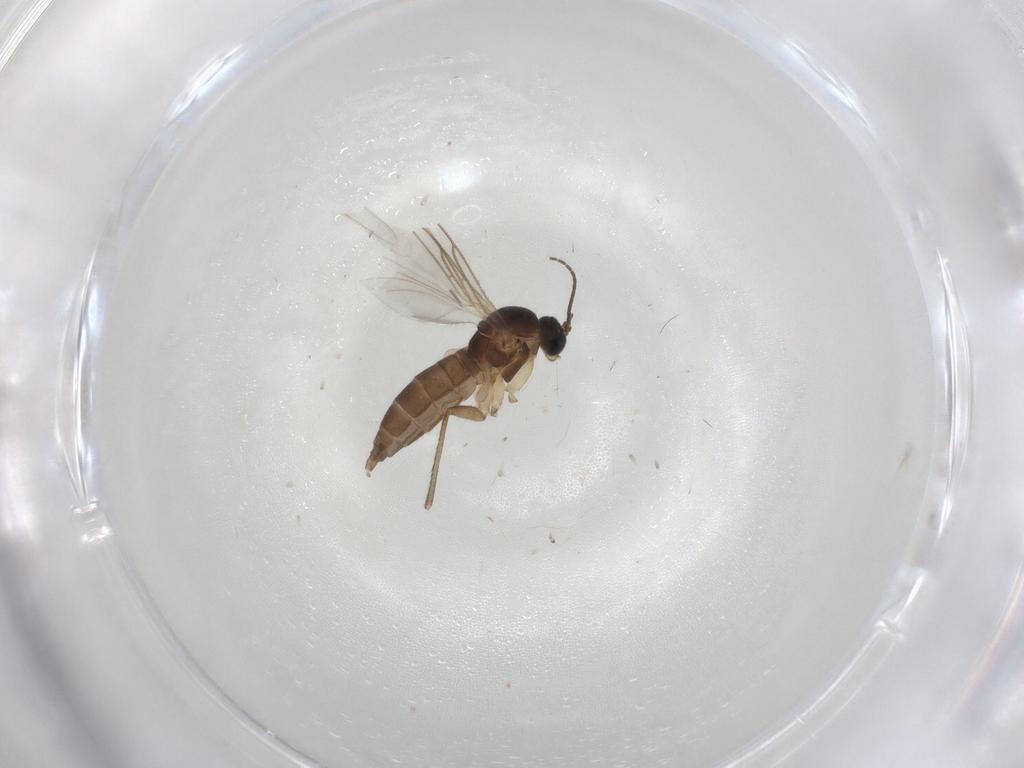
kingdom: Animalia
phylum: Arthropoda
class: Insecta
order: Diptera
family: Sciaridae
